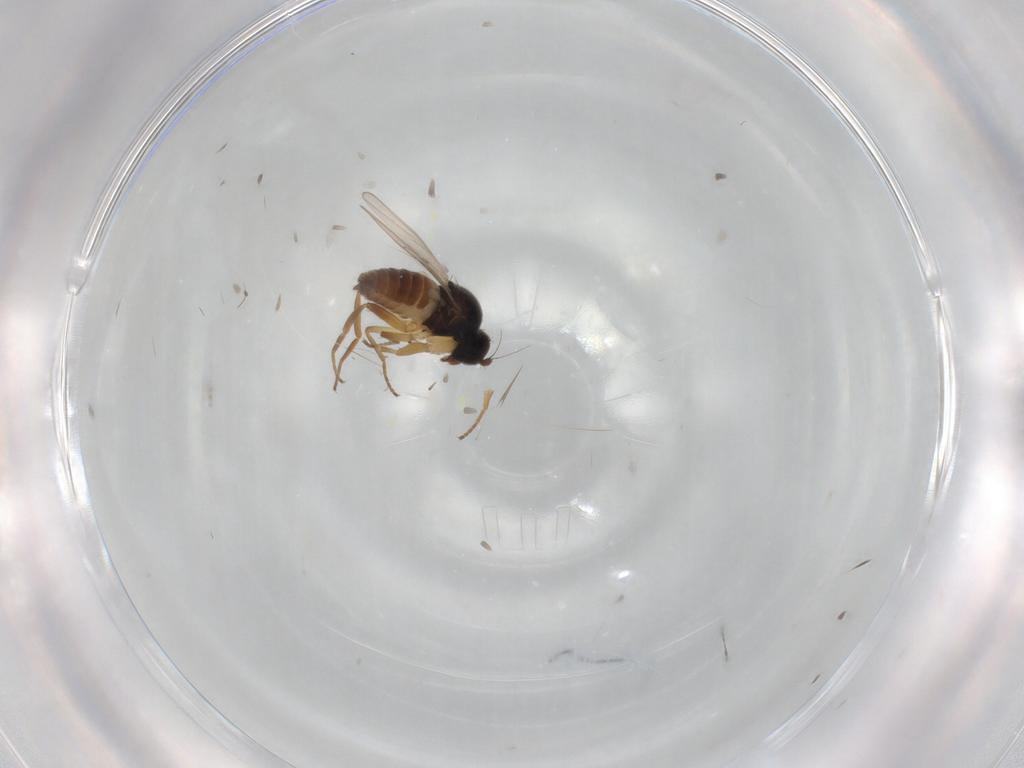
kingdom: Animalia
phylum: Arthropoda
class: Insecta
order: Diptera
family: Hybotidae
